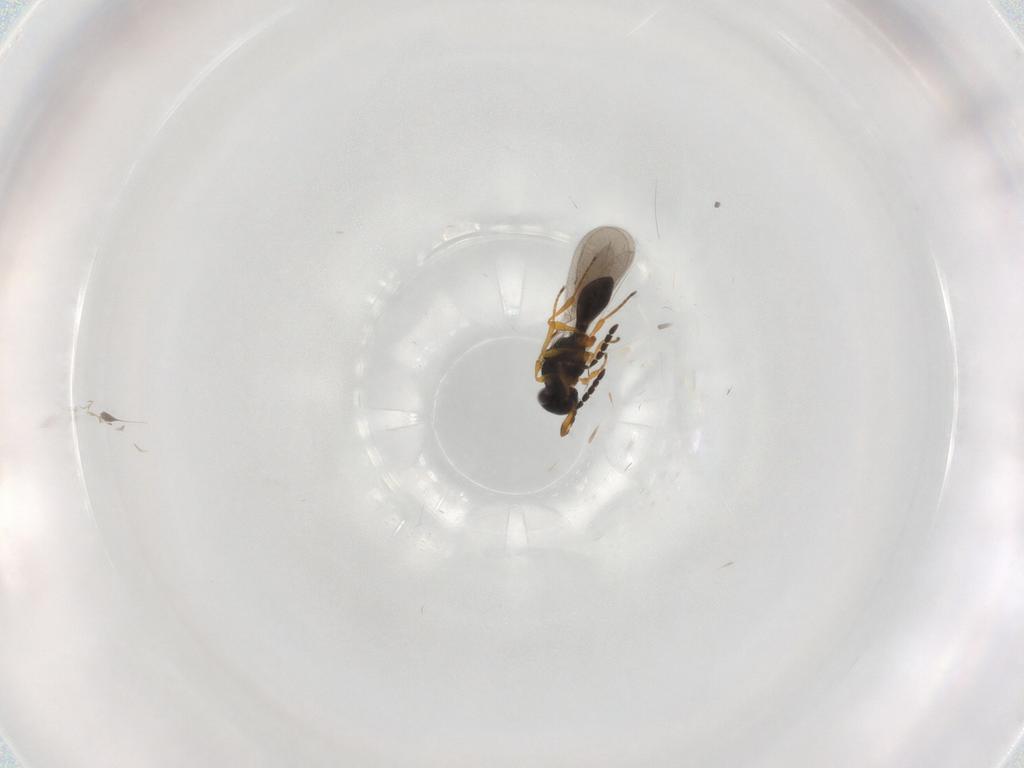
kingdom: Animalia
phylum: Arthropoda
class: Insecta
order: Hymenoptera
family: Platygastridae
